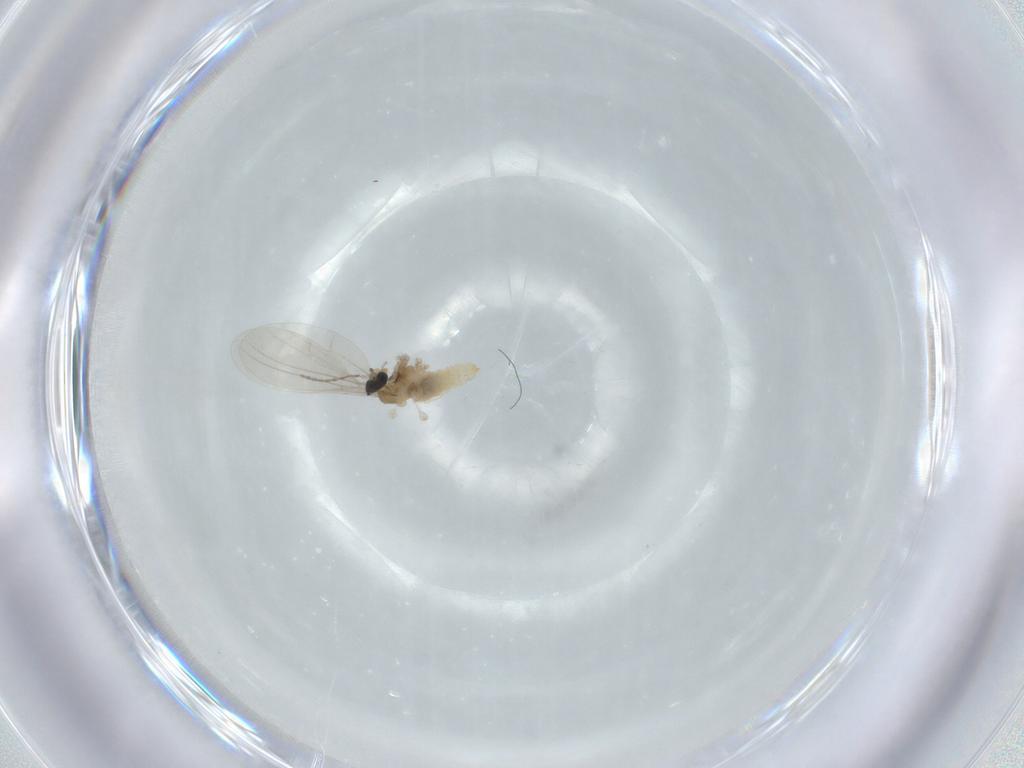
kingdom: Animalia
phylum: Arthropoda
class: Insecta
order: Diptera
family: Cecidomyiidae
